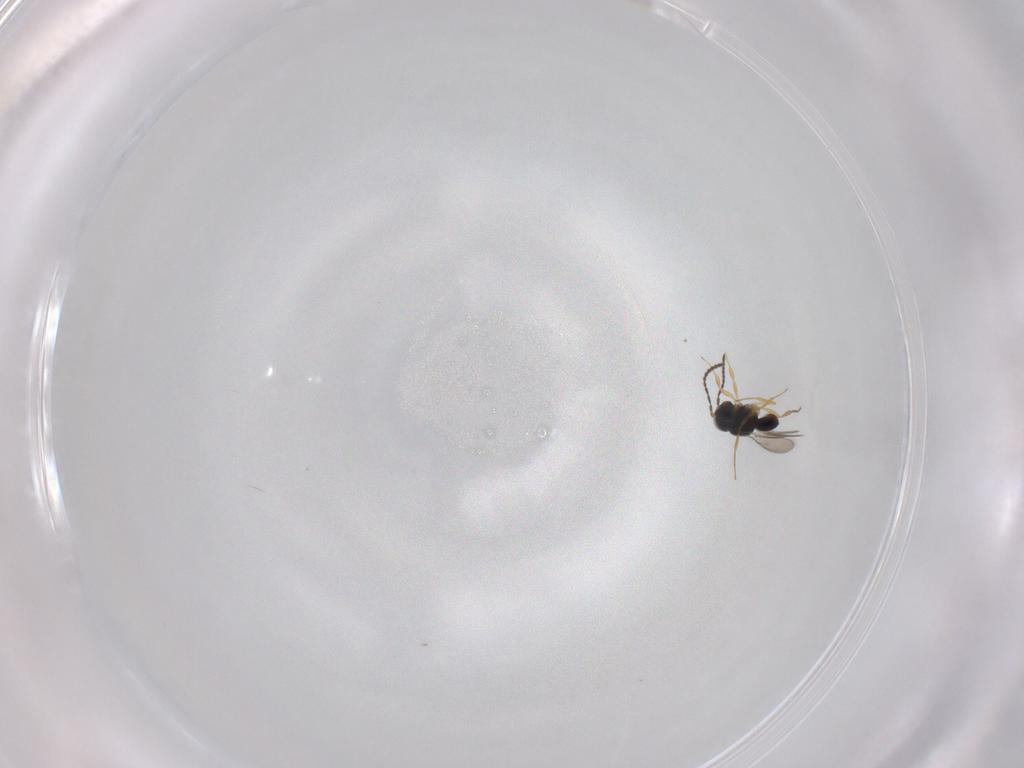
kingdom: Animalia
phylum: Arthropoda
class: Insecta
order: Hymenoptera
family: Scelionidae
